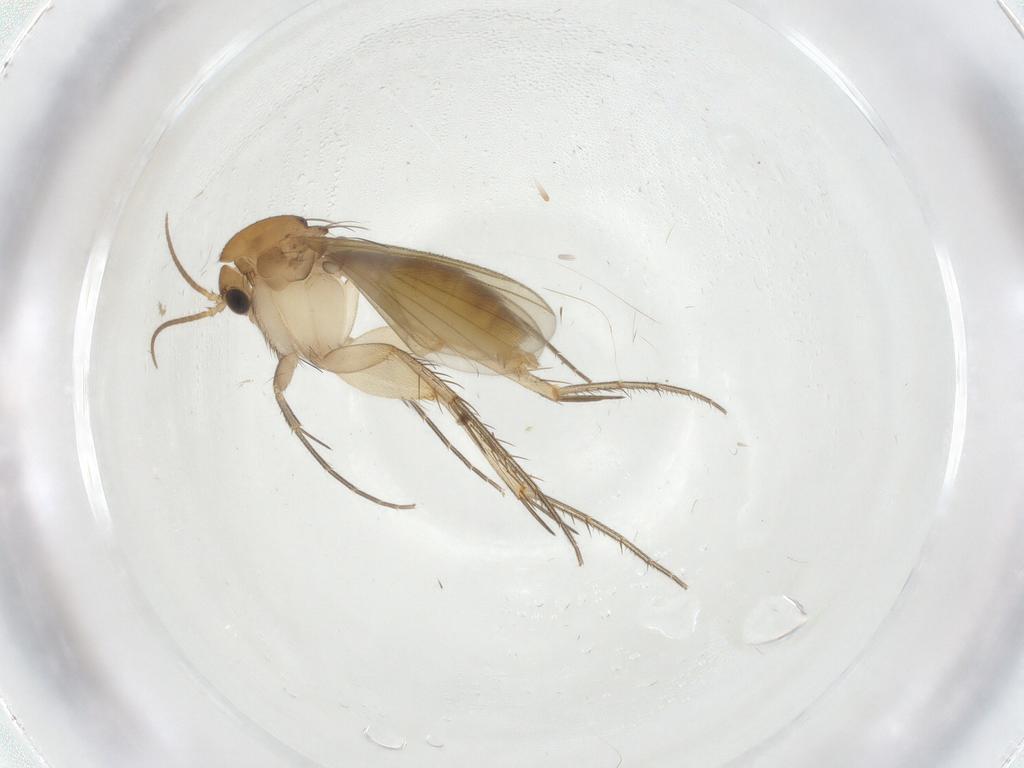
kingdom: Animalia
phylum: Arthropoda
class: Insecta
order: Diptera
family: Mycetophilidae
